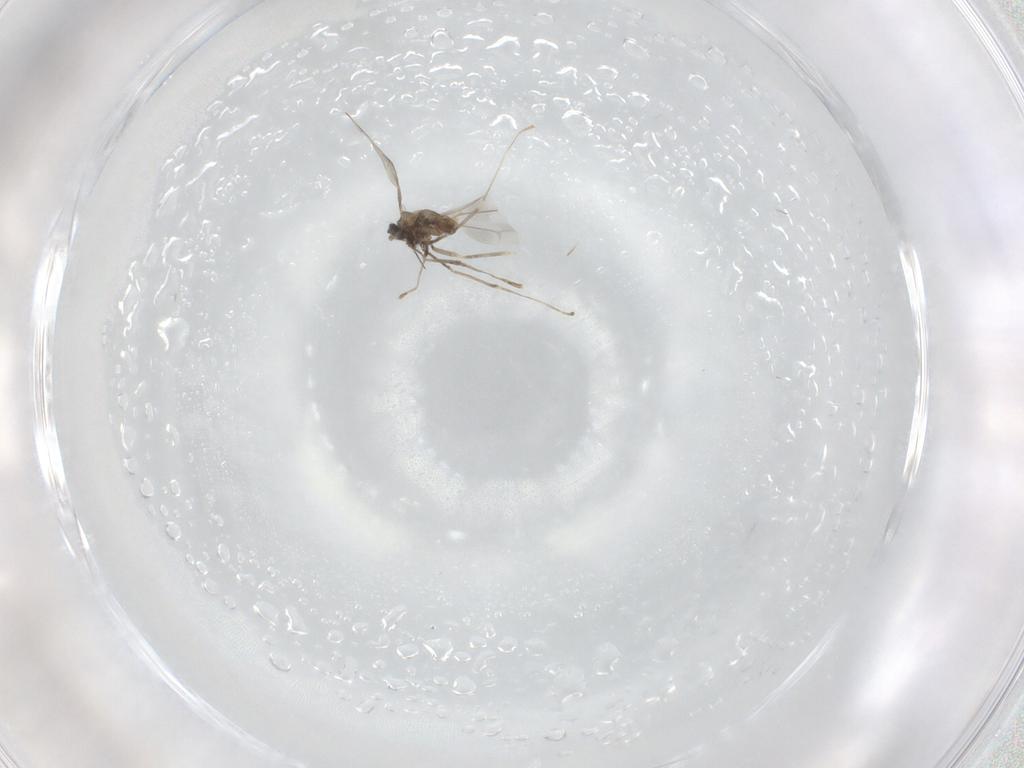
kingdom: Animalia
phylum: Arthropoda
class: Insecta
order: Diptera
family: Cecidomyiidae
